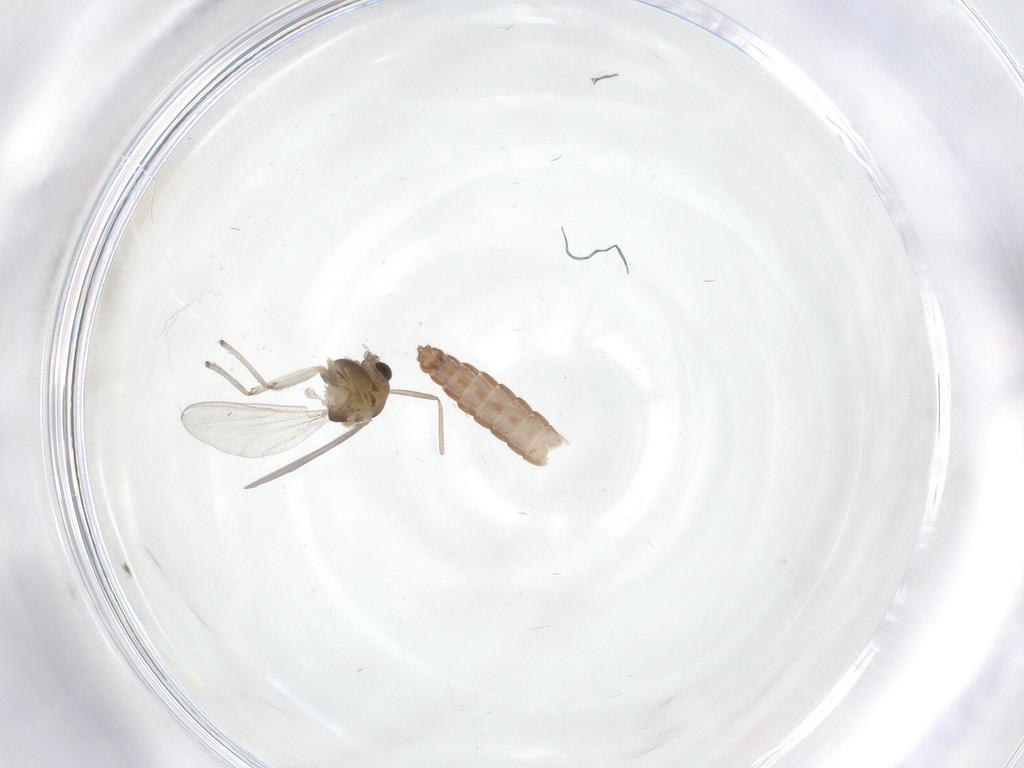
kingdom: Animalia
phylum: Arthropoda
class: Insecta
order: Diptera
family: Chironomidae
